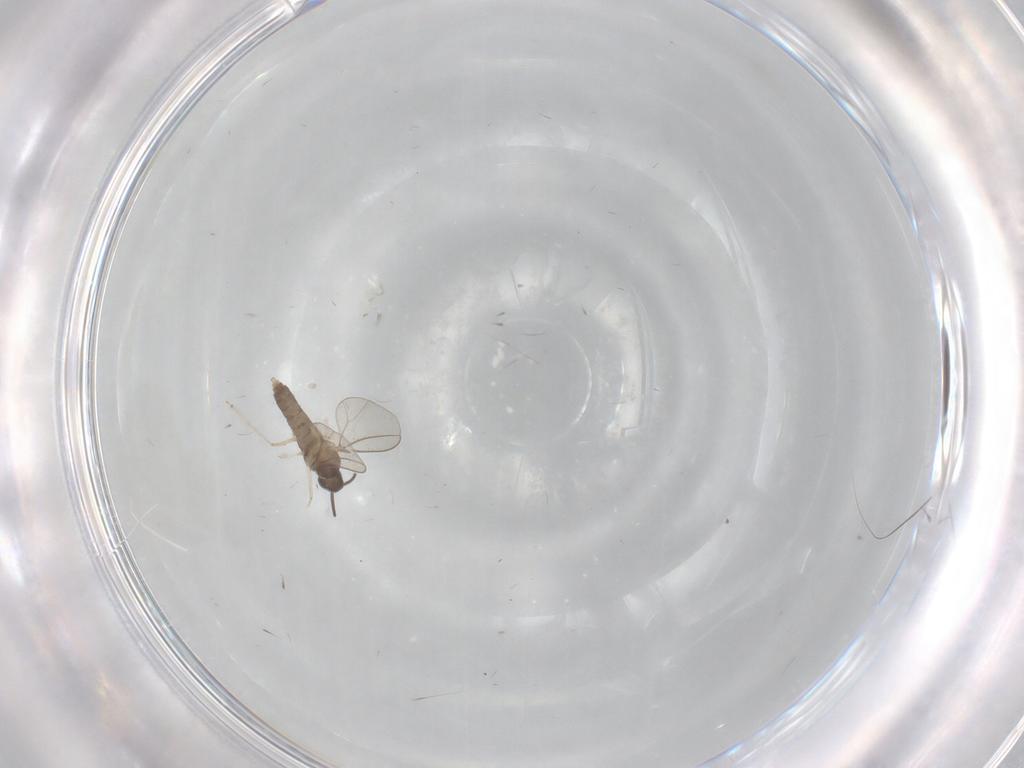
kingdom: Animalia
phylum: Arthropoda
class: Insecta
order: Diptera
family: Cecidomyiidae
